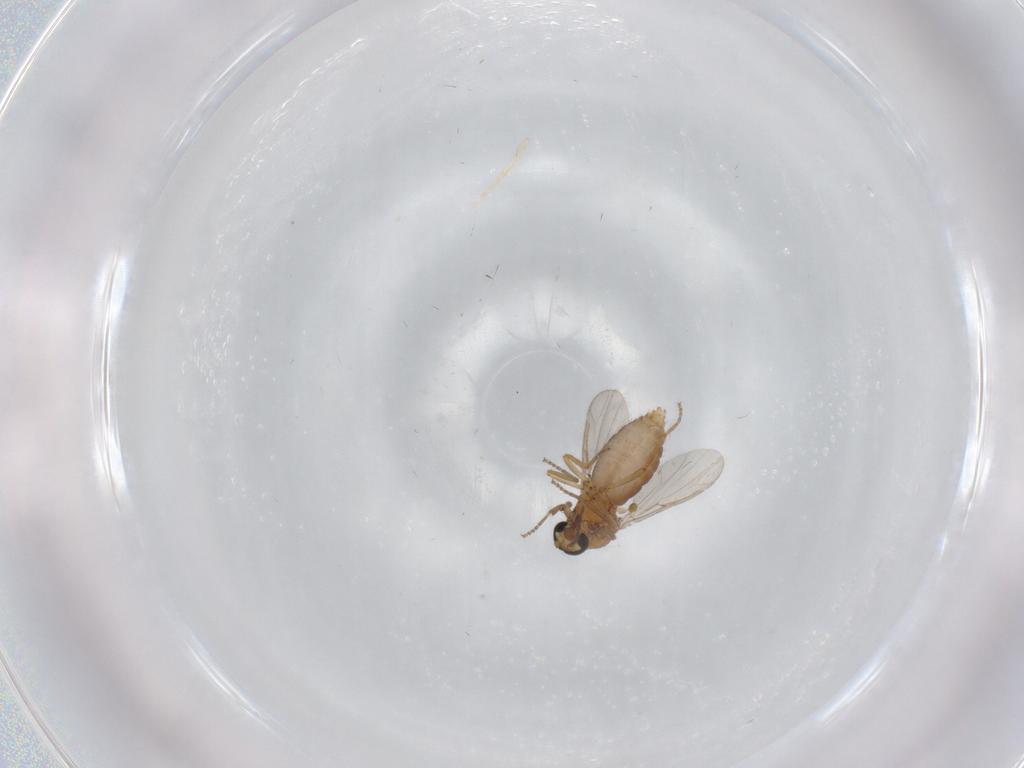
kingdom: Animalia
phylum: Arthropoda
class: Insecta
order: Diptera
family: Ceratopogonidae
